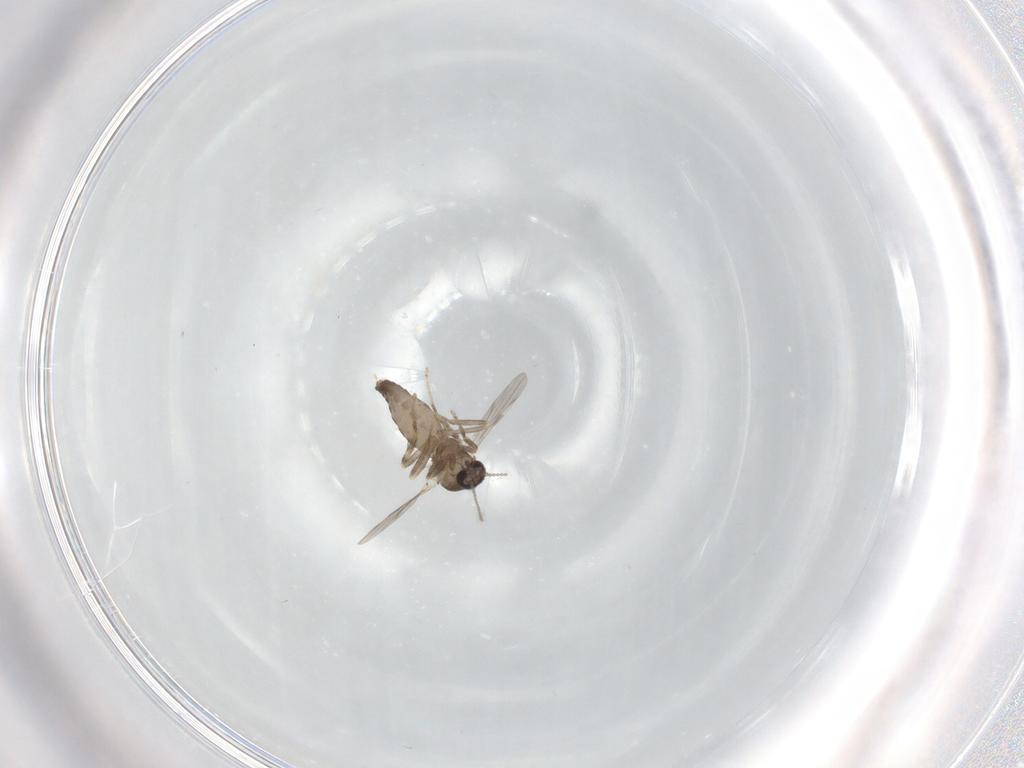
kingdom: Animalia
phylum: Arthropoda
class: Insecta
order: Diptera
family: Ceratopogonidae
